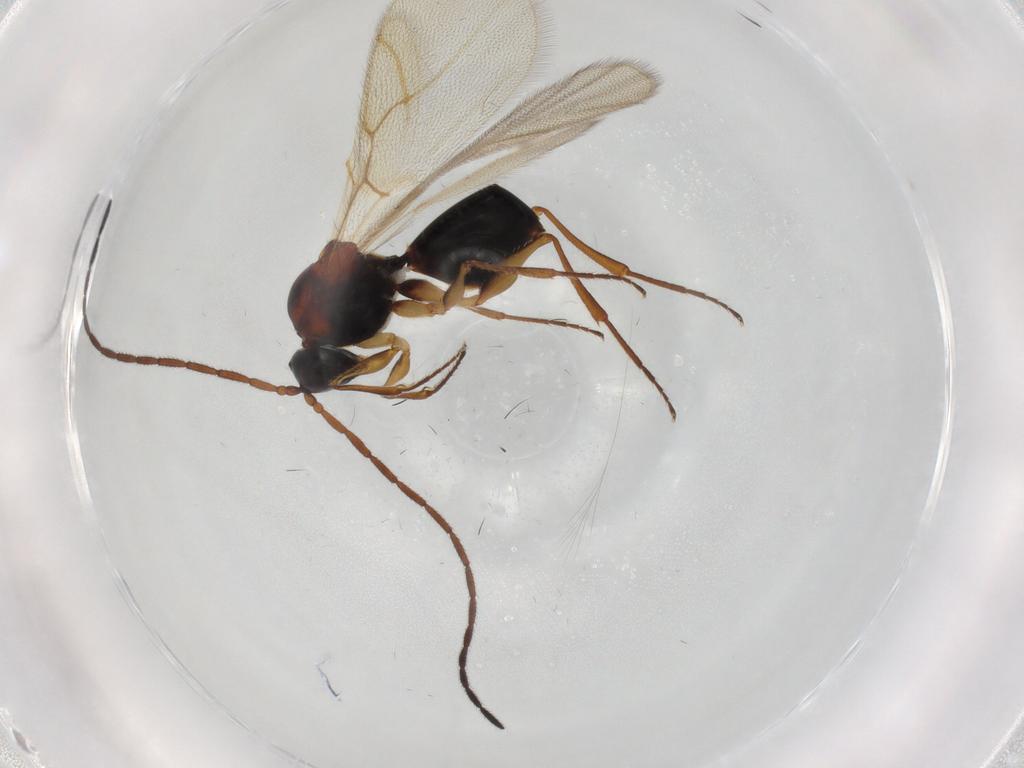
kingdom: Animalia
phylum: Arthropoda
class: Insecta
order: Hymenoptera
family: Figitidae
